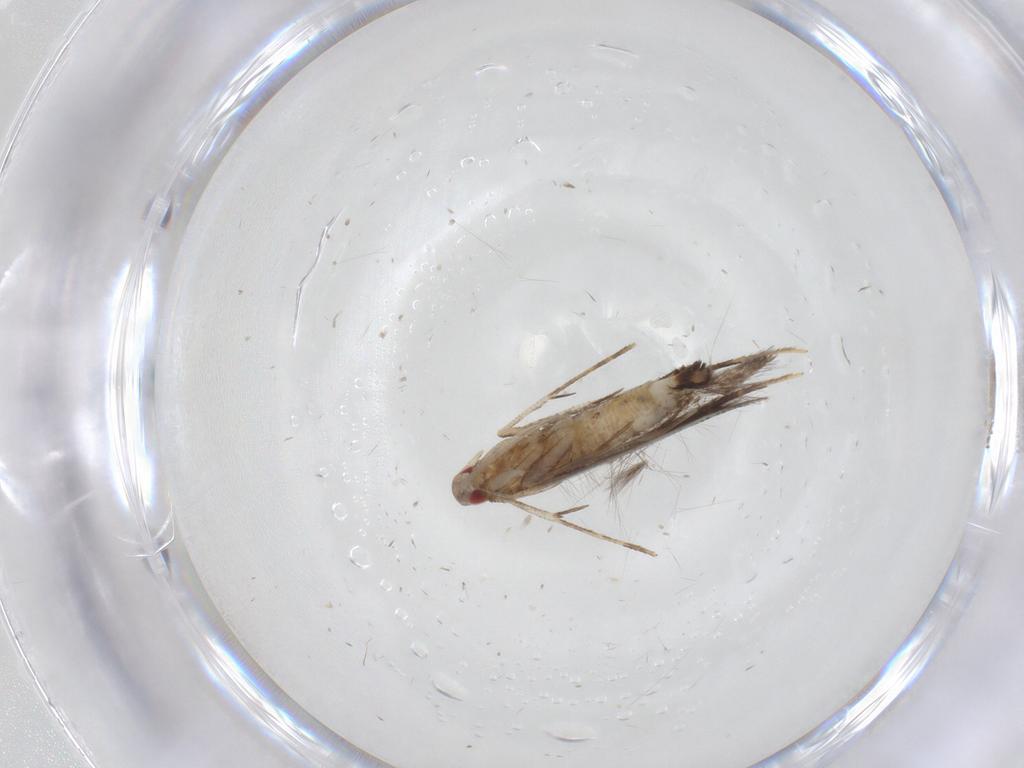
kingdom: Animalia
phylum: Arthropoda
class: Insecta
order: Lepidoptera
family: Cosmopterigidae
